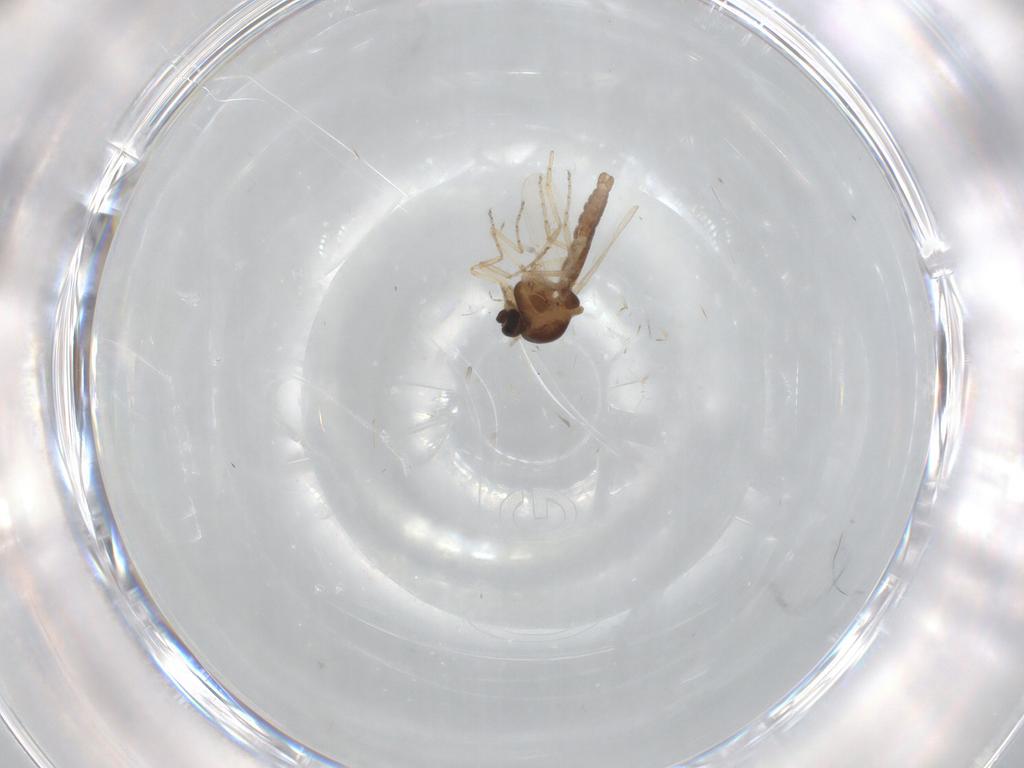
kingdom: Animalia
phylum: Arthropoda
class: Insecta
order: Diptera
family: Ceratopogonidae
